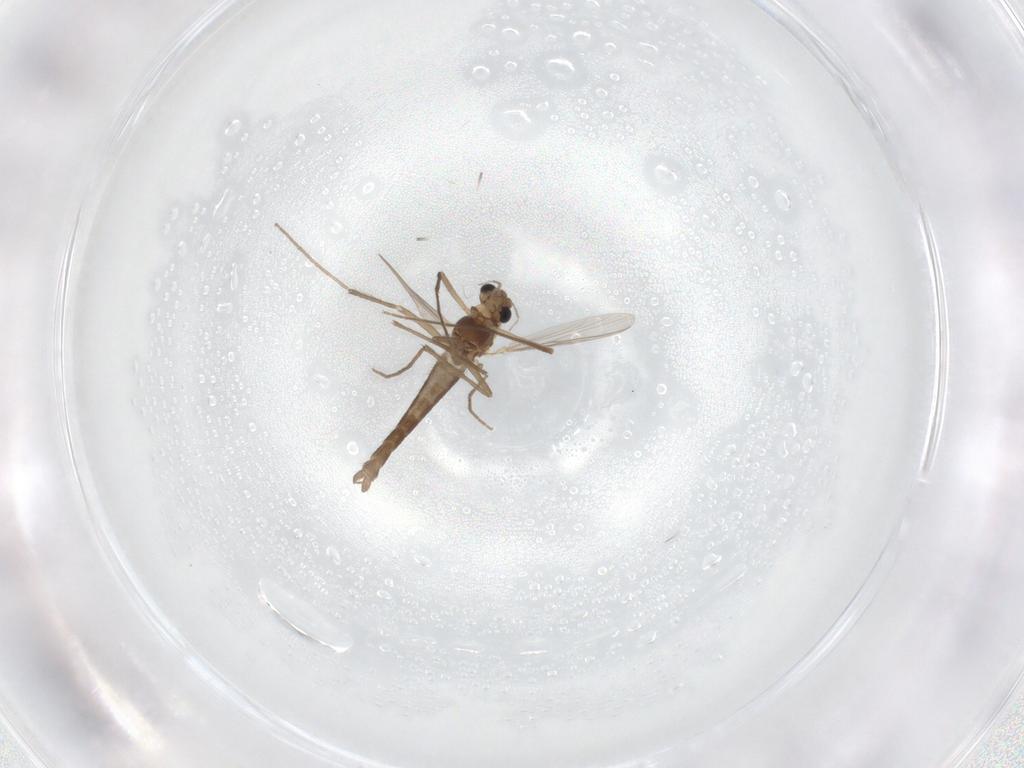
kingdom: Animalia
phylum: Arthropoda
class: Insecta
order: Diptera
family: Chironomidae
